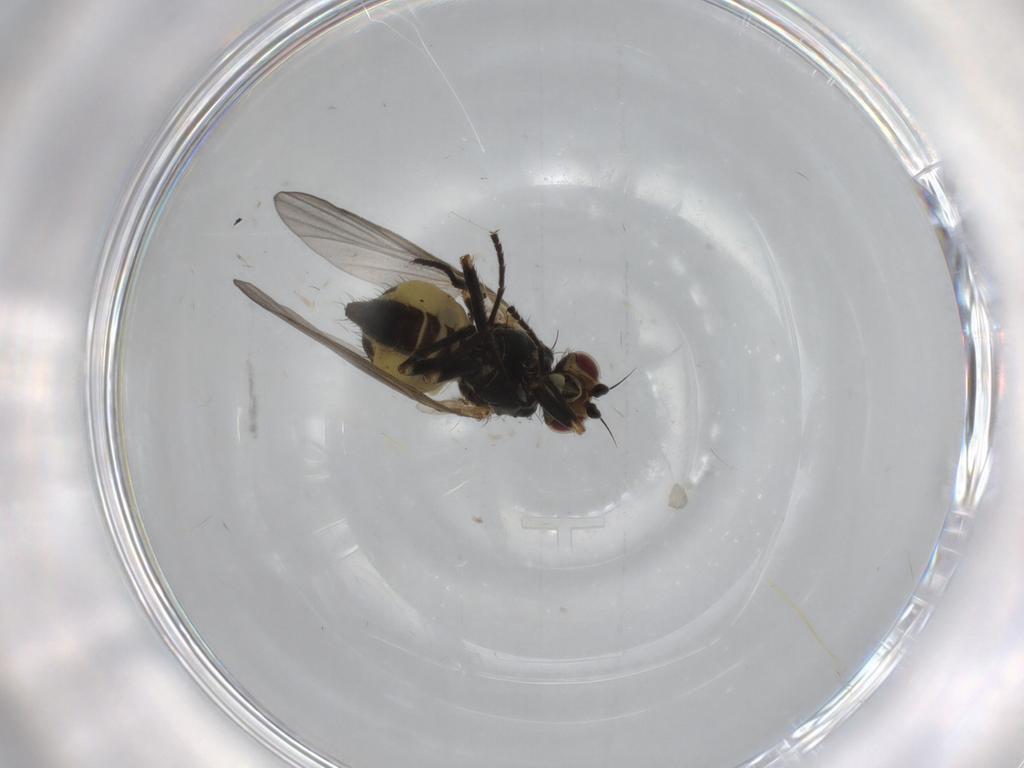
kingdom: Animalia
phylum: Arthropoda
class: Insecta
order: Diptera
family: Agromyzidae
